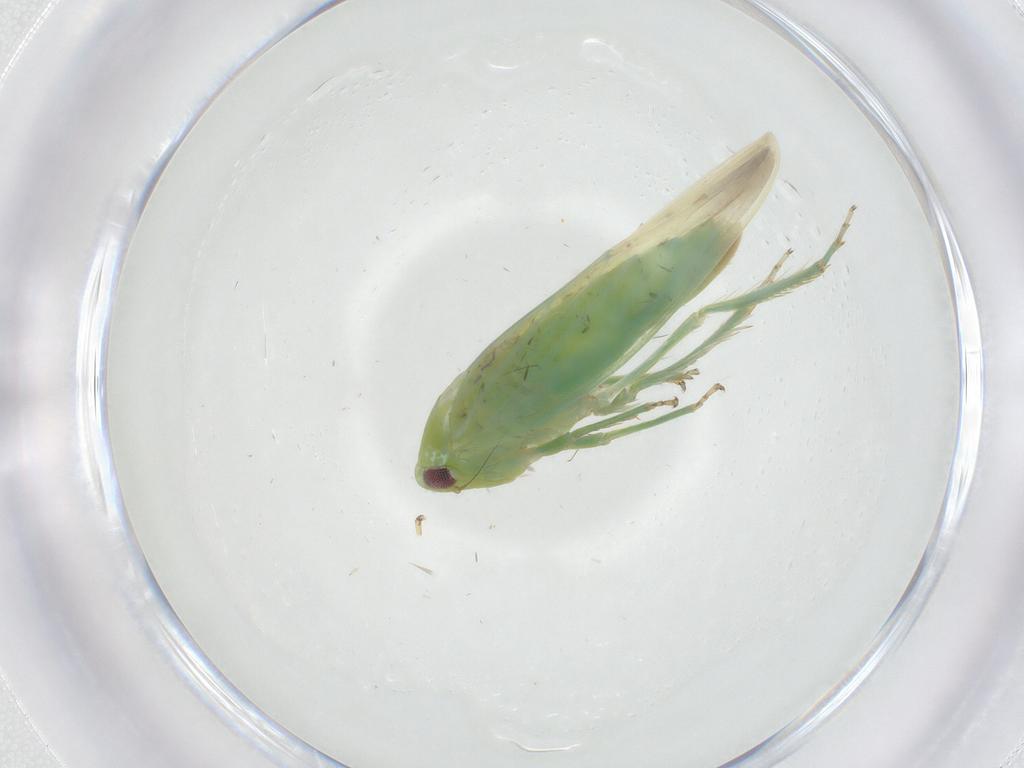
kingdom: Animalia
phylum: Arthropoda
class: Insecta
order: Hemiptera
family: Cicadellidae
